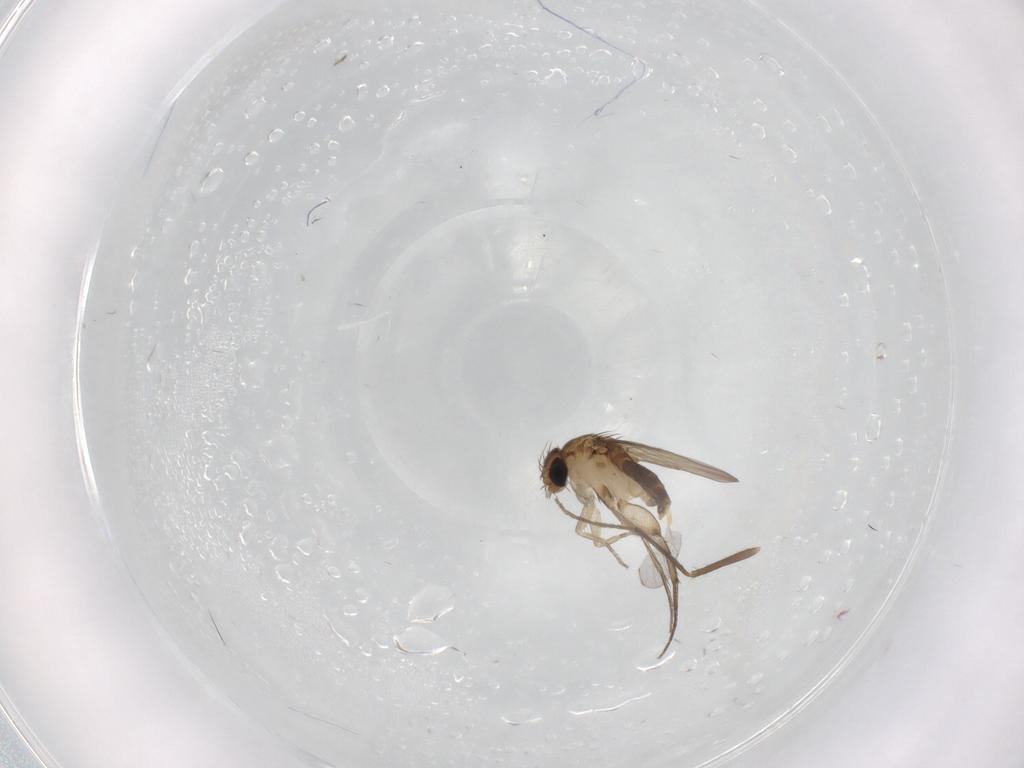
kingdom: Animalia
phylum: Arthropoda
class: Insecta
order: Diptera
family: Phoridae
